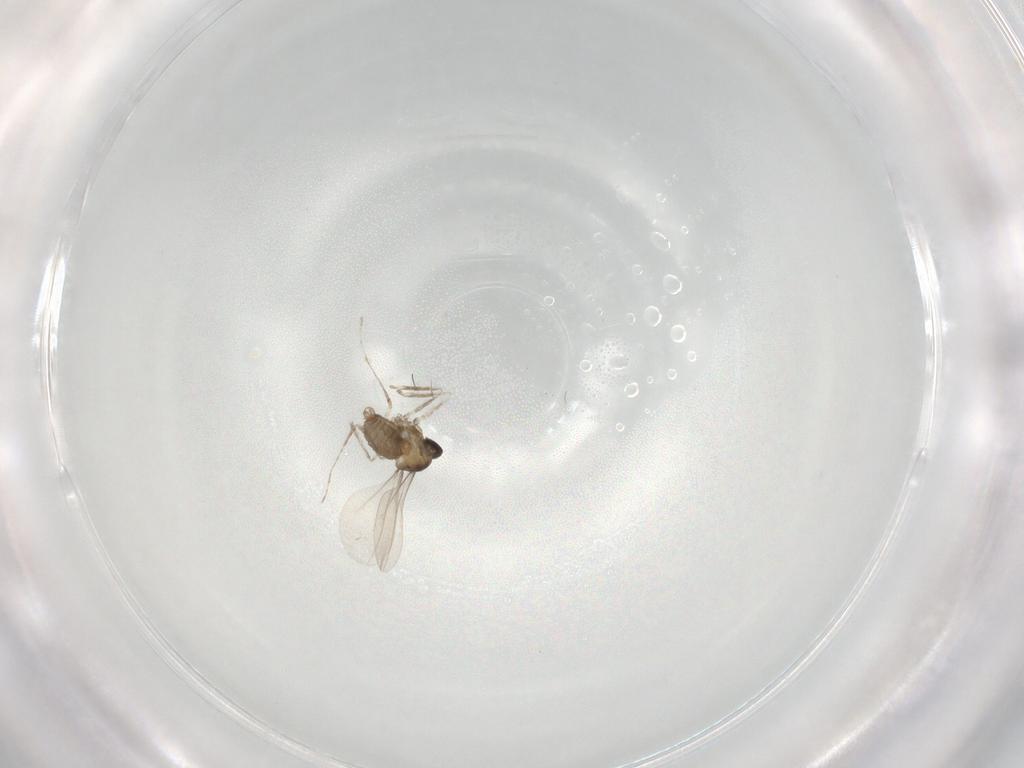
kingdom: Animalia
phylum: Arthropoda
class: Insecta
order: Diptera
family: Cecidomyiidae
